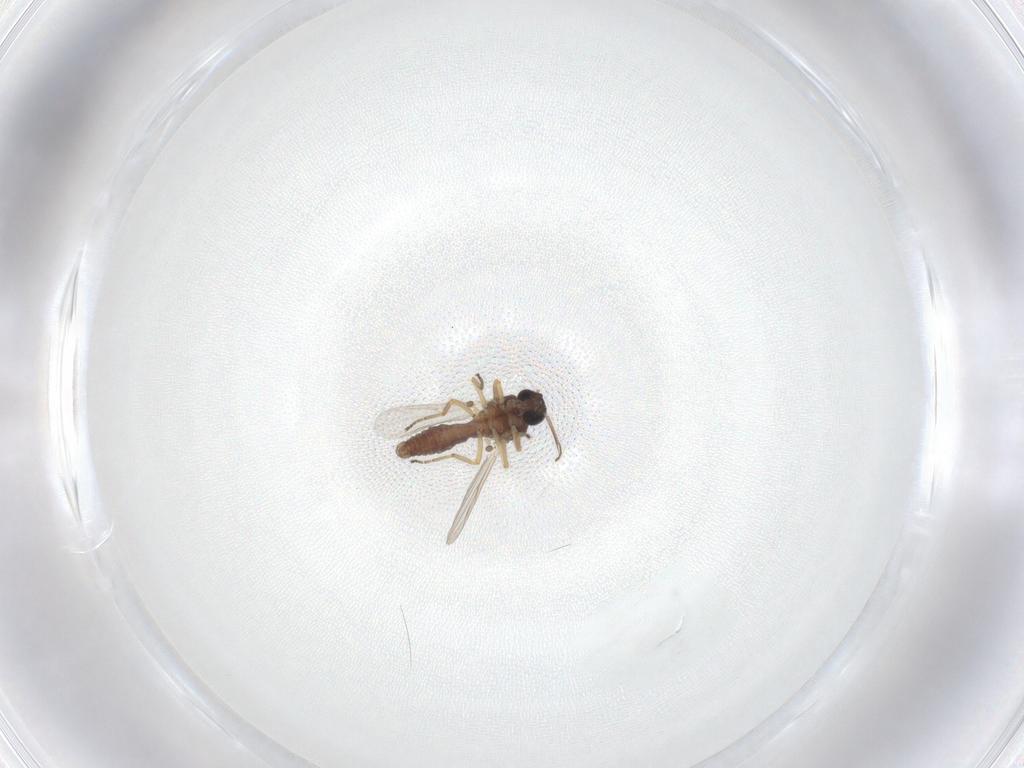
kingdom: Animalia
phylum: Arthropoda
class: Insecta
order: Diptera
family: Ceratopogonidae
